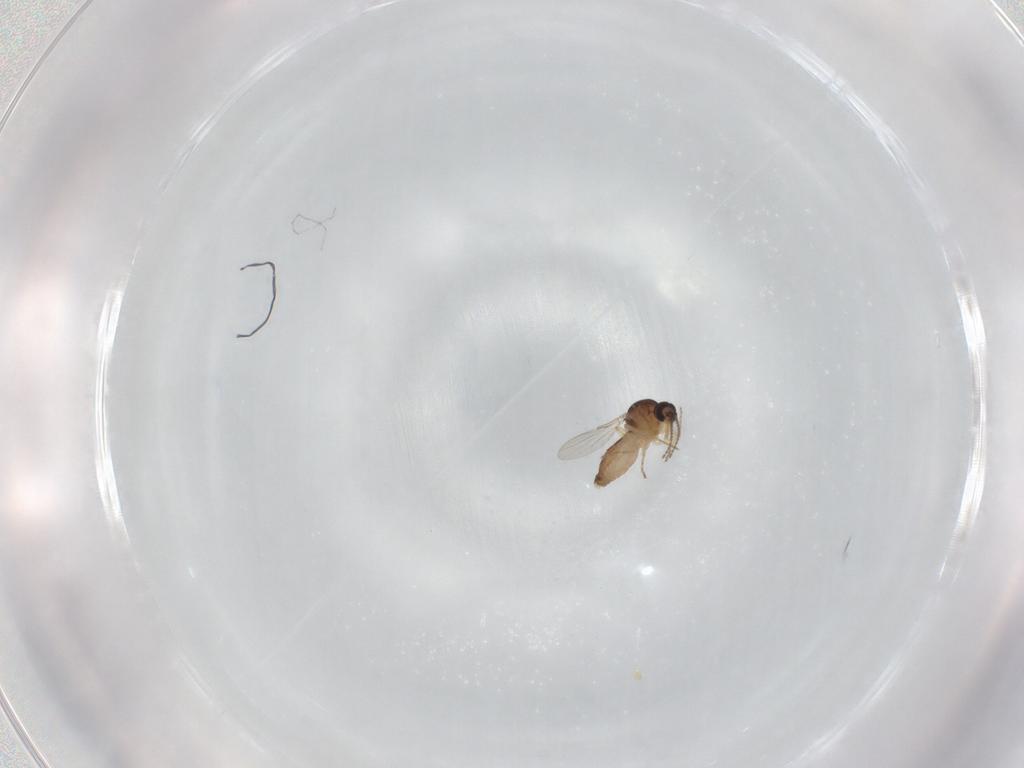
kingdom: Animalia
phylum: Arthropoda
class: Insecta
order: Diptera
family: Ceratopogonidae
